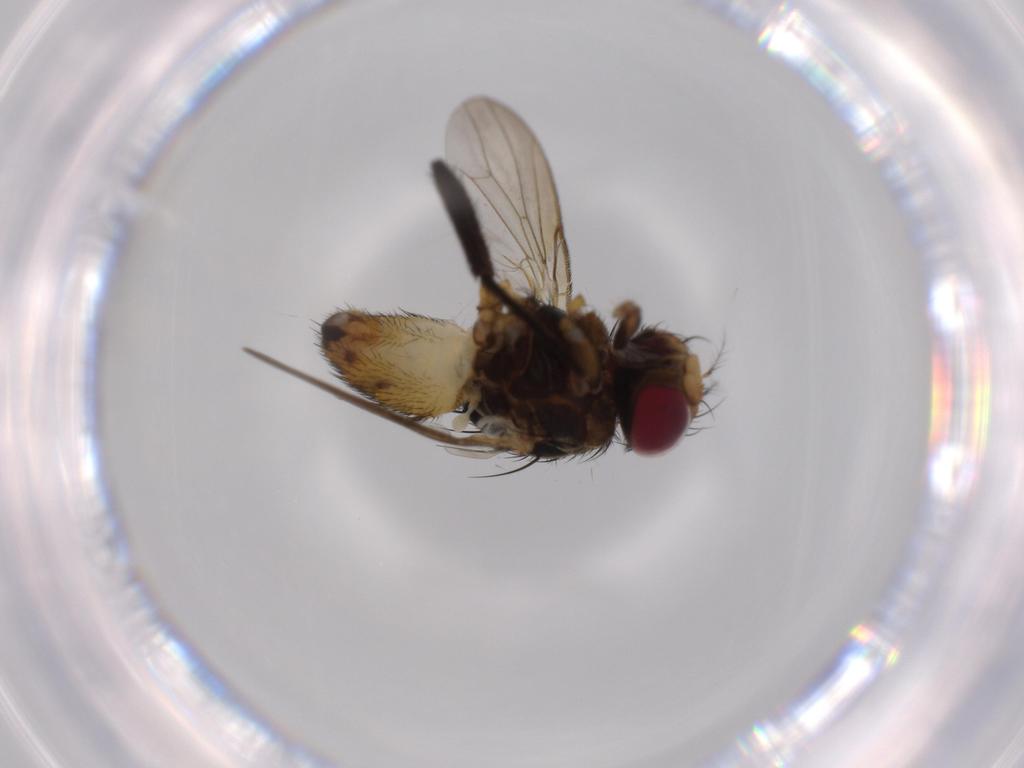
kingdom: Animalia
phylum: Arthropoda
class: Insecta
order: Diptera
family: Anthomyiidae
